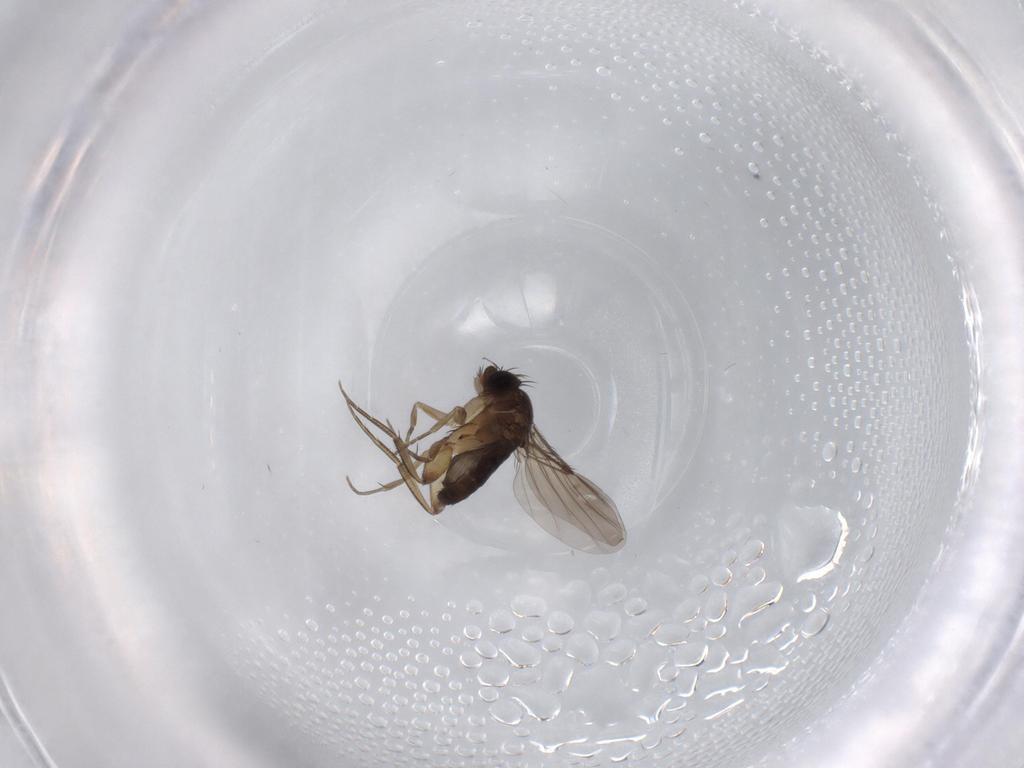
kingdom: Animalia
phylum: Arthropoda
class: Insecta
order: Diptera
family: Phoridae
